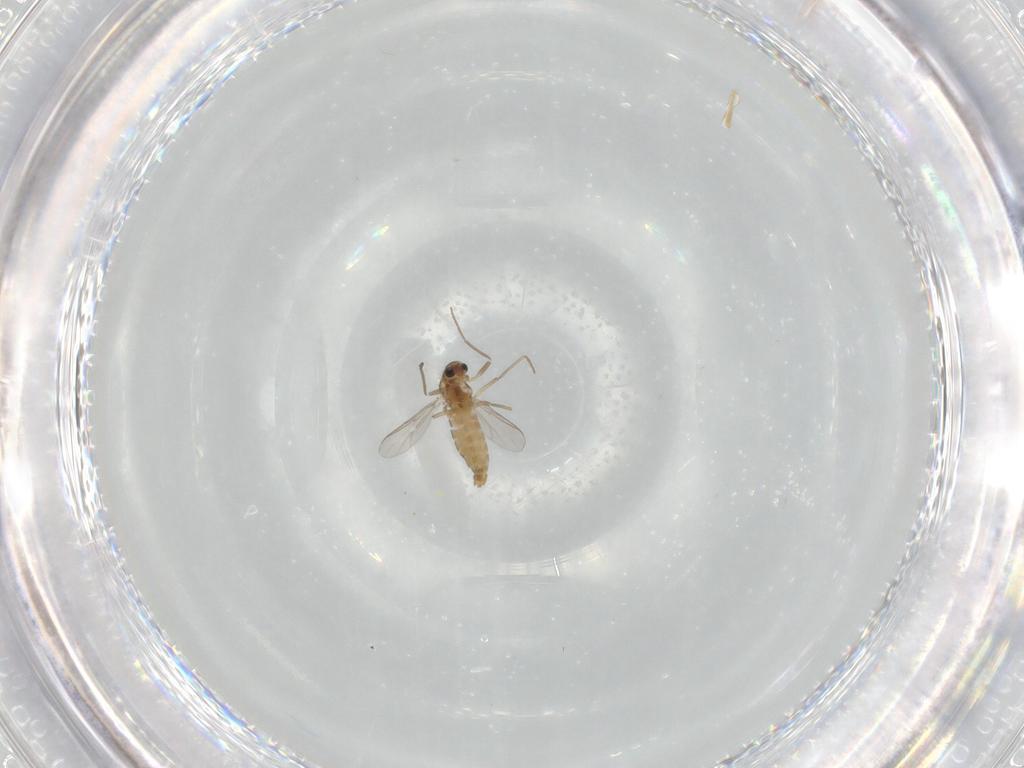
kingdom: Animalia
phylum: Arthropoda
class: Insecta
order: Diptera
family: Chironomidae
